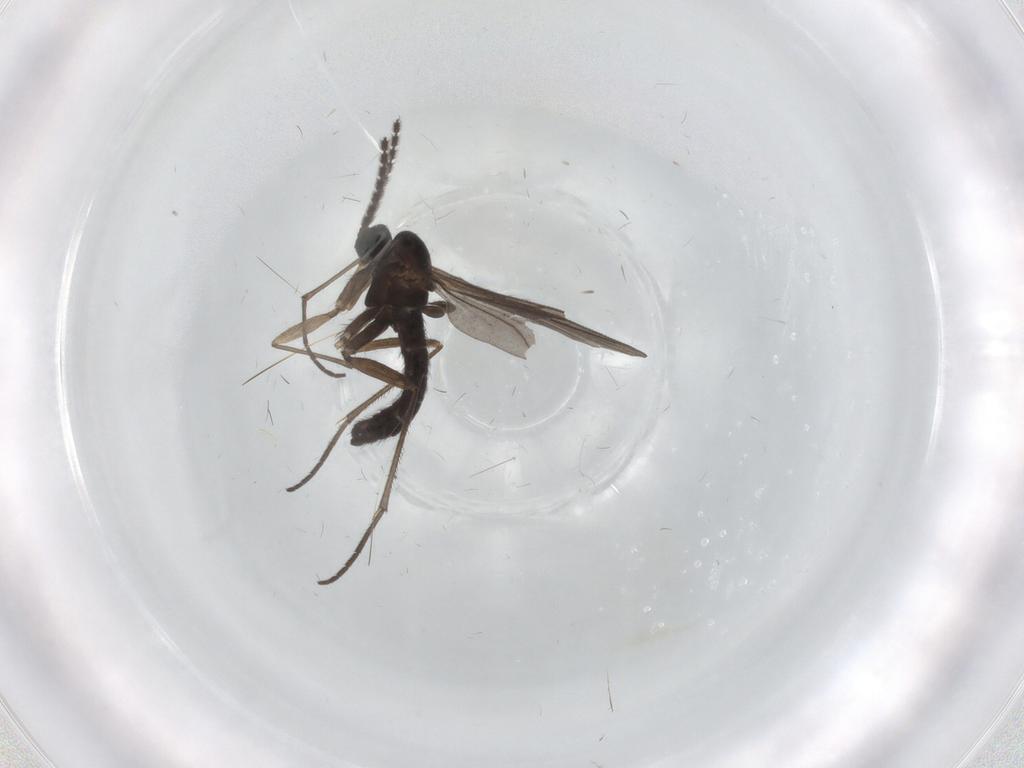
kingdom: Animalia
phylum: Arthropoda
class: Insecta
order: Diptera
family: Sciaridae
